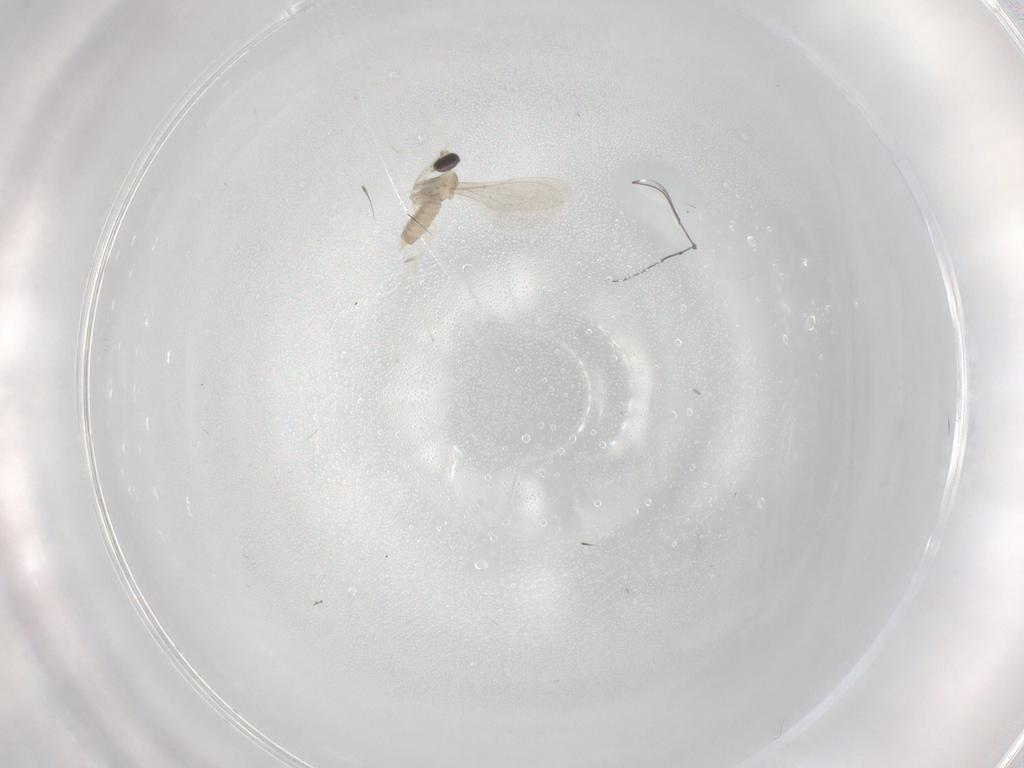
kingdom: Animalia
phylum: Arthropoda
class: Insecta
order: Diptera
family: Cecidomyiidae
